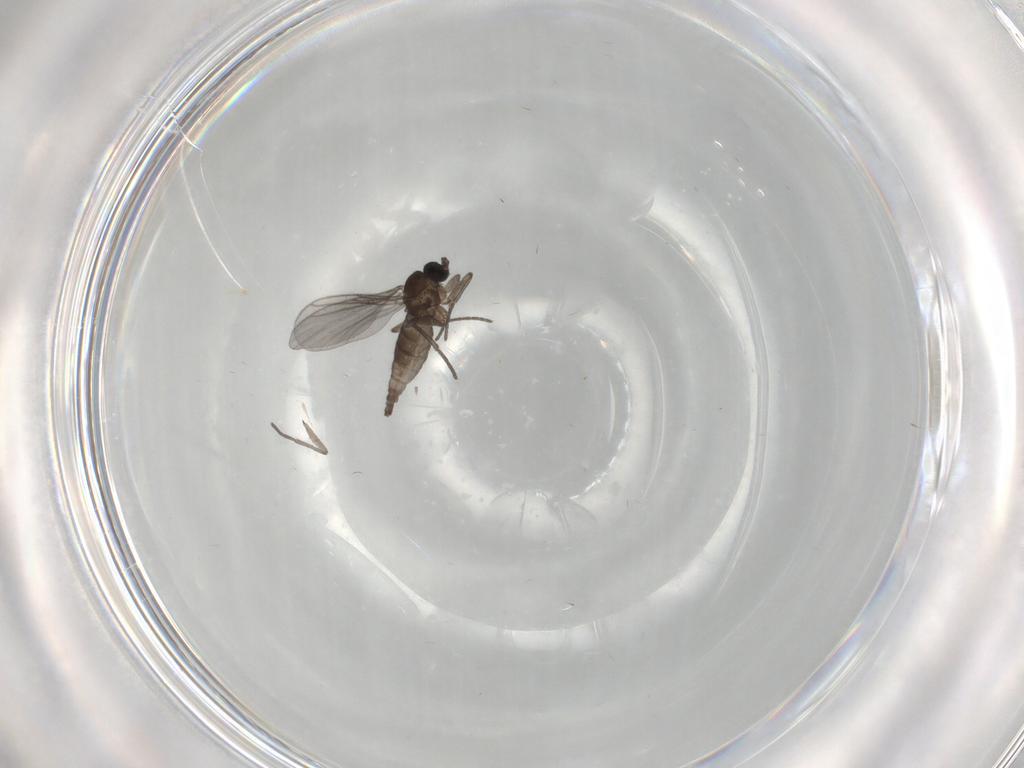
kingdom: Animalia
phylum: Arthropoda
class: Insecta
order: Diptera
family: Chironomidae
